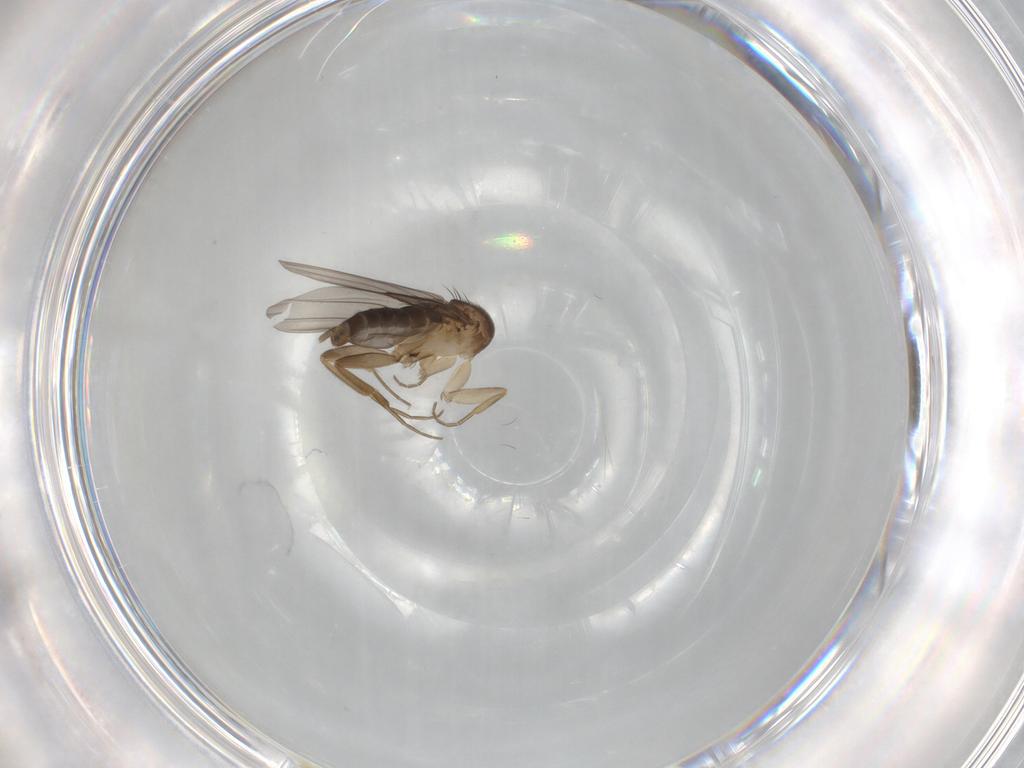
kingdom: Animalia
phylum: Arthropoda
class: Insecta
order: Diptera
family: Phoridae
